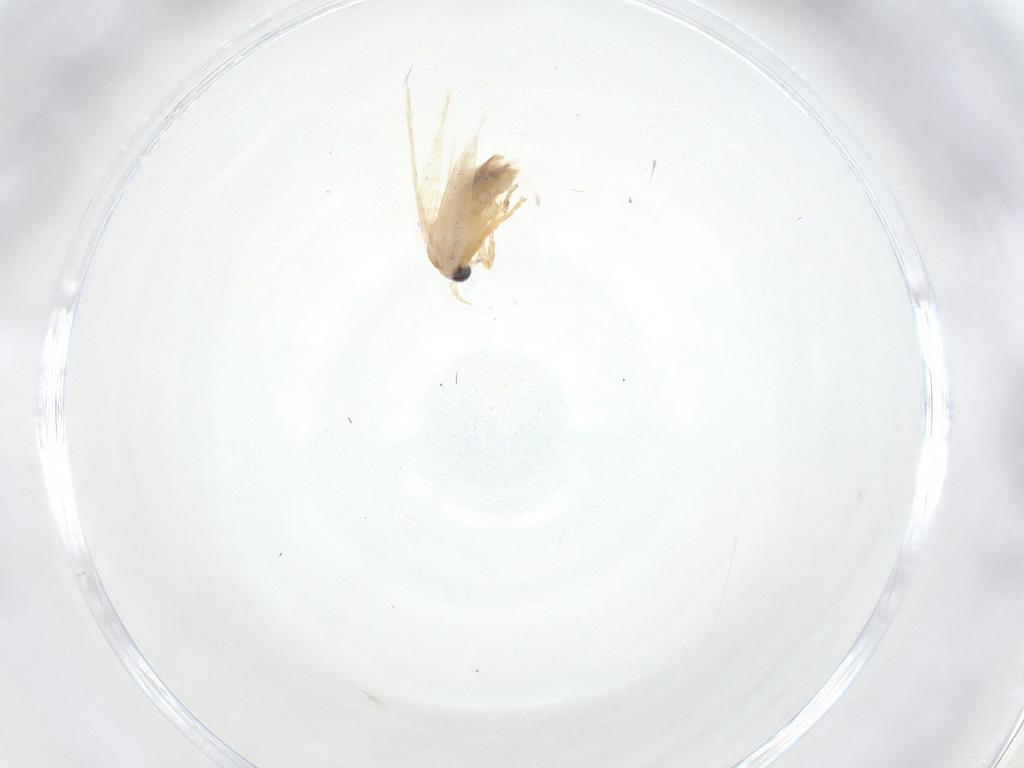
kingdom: Animalia
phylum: Arthropoda
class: Insecta
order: Lepidoptera
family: Nepticulidae
